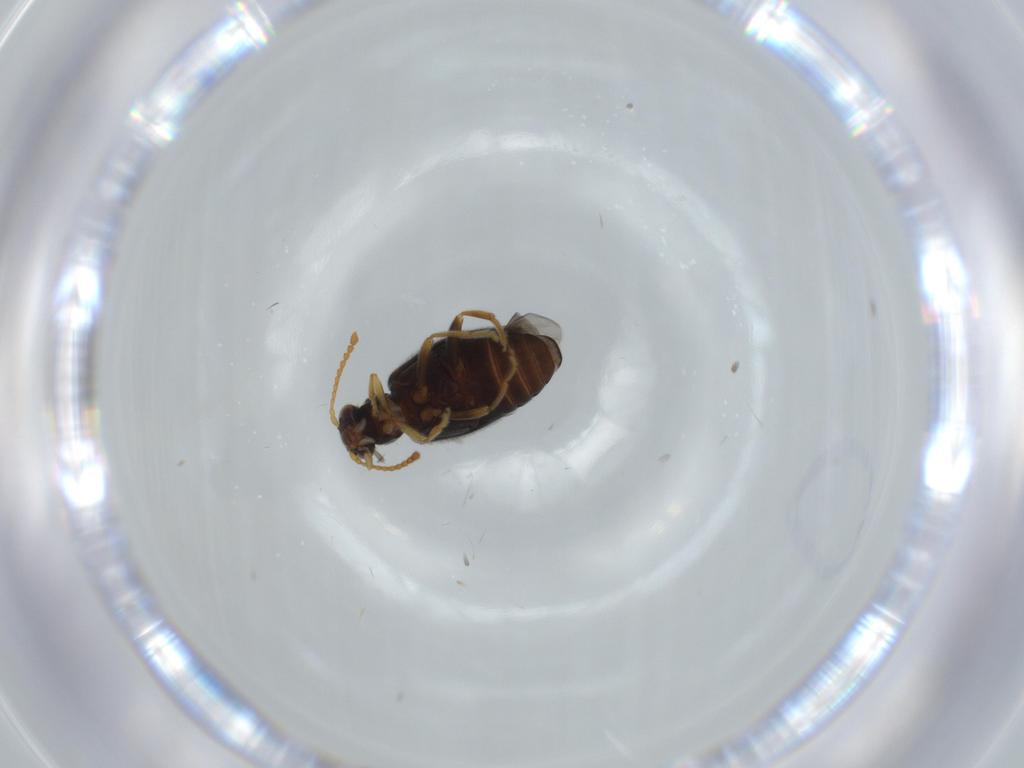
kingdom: Animalia
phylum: Arthropoda
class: Insecta
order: Coleoptera
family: Aderidae
